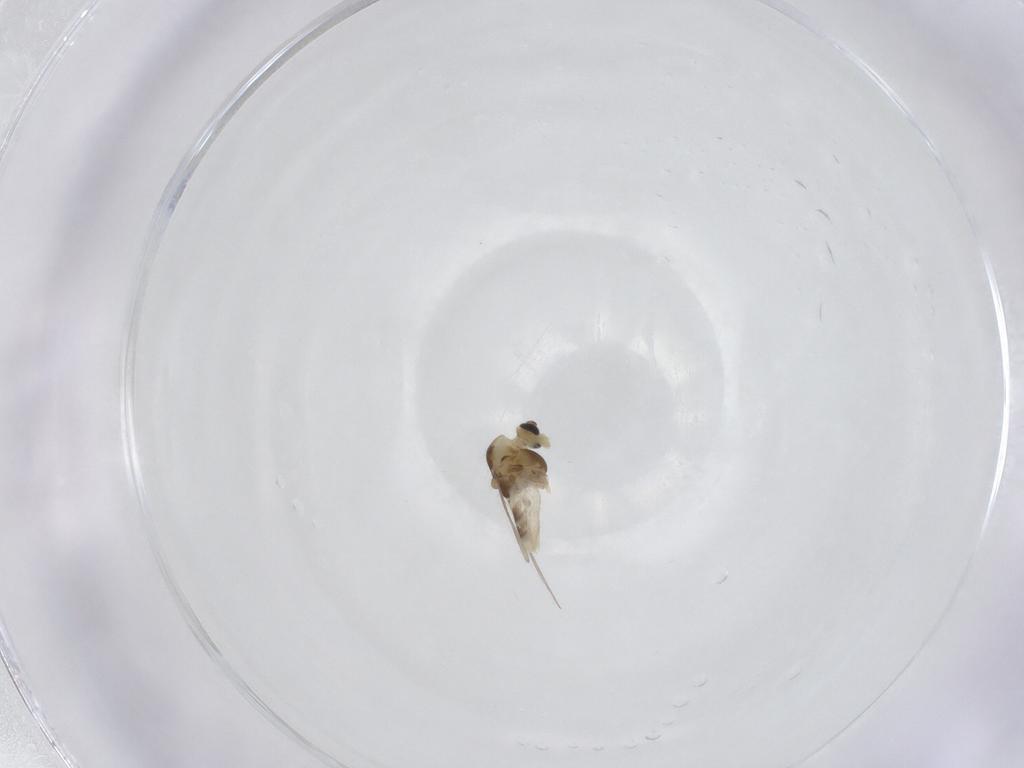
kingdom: Animalia
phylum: Arthropoda
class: Insecta
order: Diptera
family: Chironomidae
